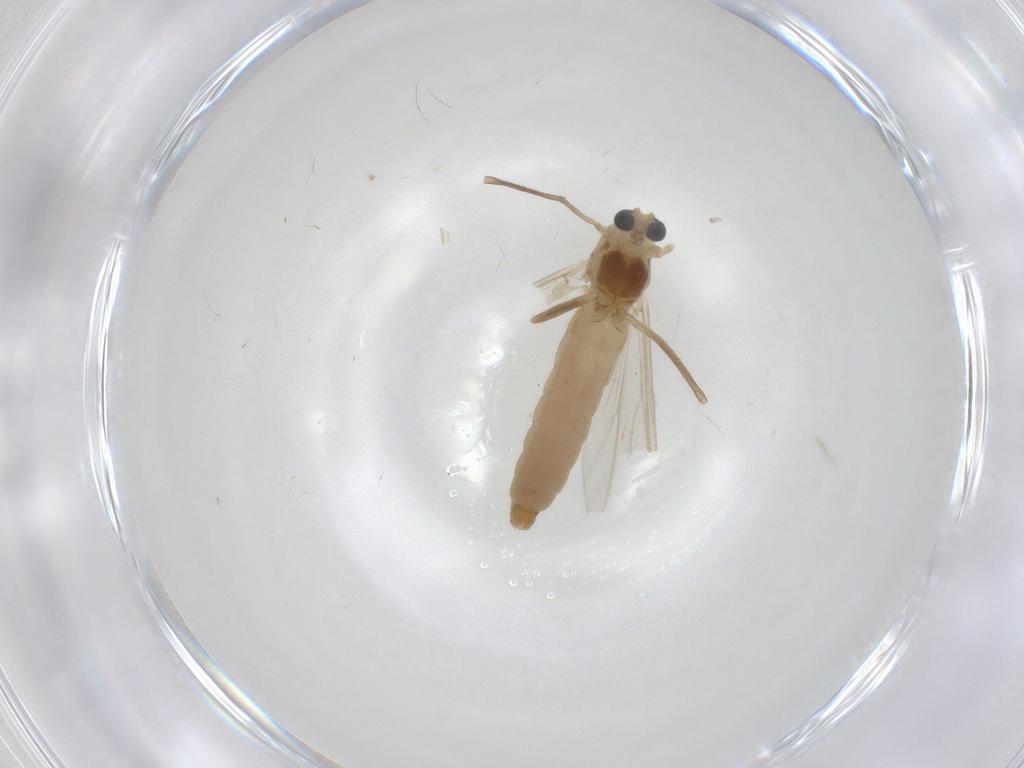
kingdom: Animalia
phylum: Arthropoda
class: Insecta
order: Diptera
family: Chironomidae
